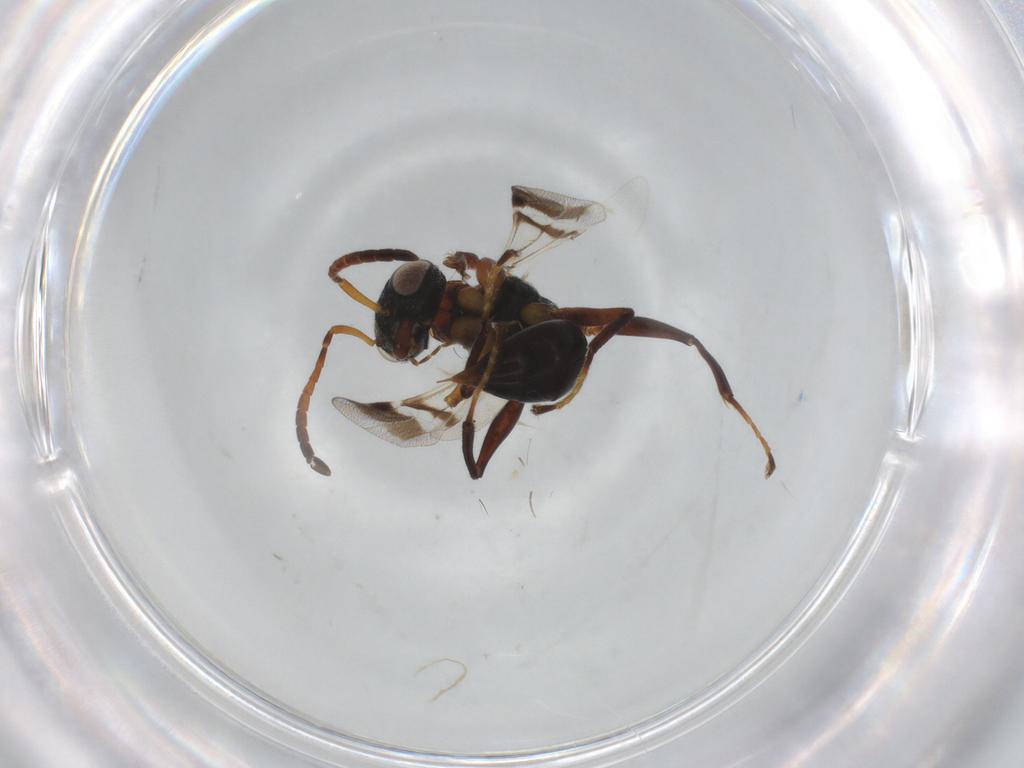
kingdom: Animalia
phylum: Arthropoda
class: Insecta
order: Hymenoptera
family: Dryinidae
